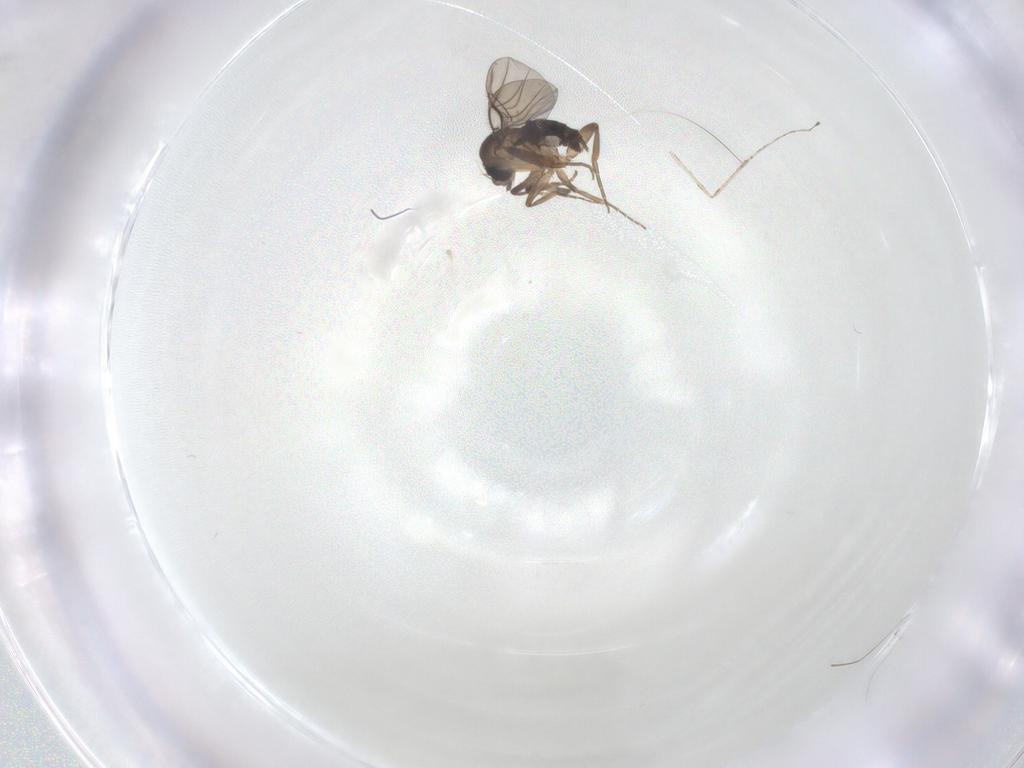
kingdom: Animalia
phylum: Arthropoda
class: Insecta
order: Diptera
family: Cecidomyiidae
